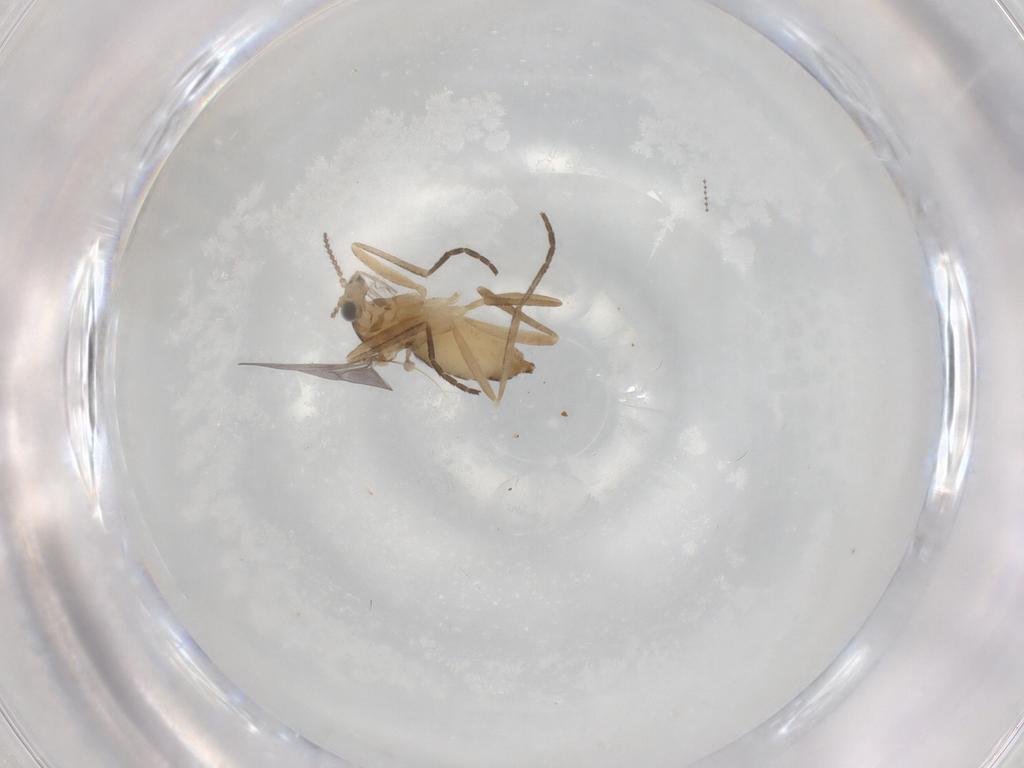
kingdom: Animalia
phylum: Arthropoda
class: Insecta
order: Diptera
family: Cecidomyiidae
